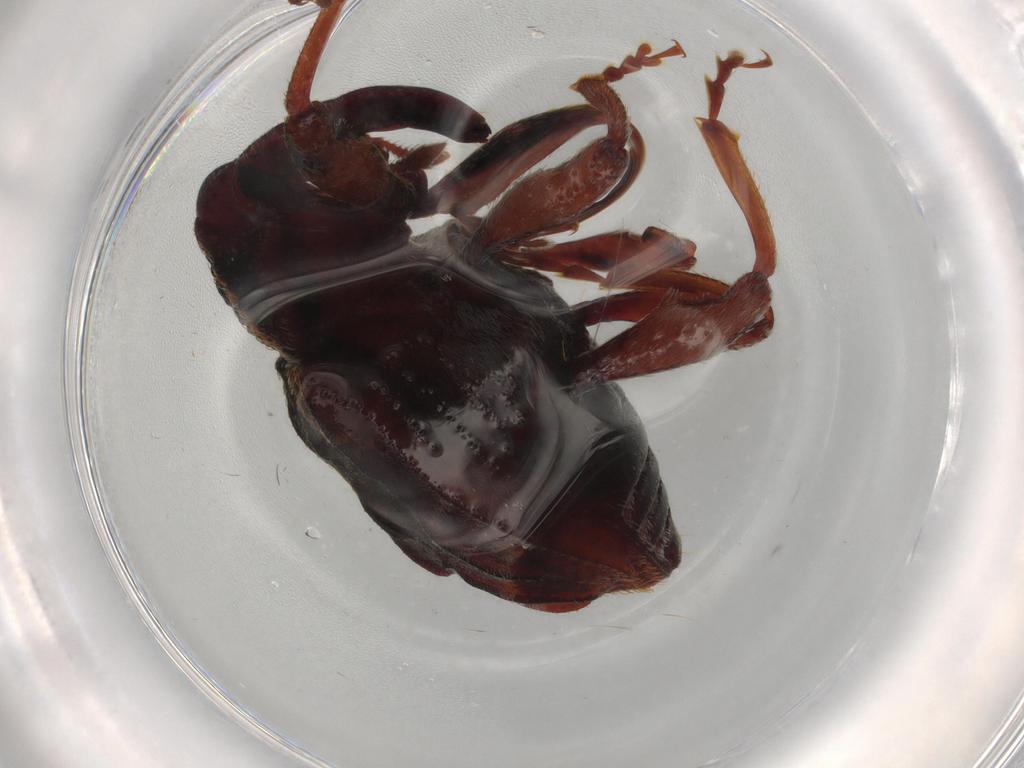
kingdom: Animalia
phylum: Arthropoda
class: Insecta
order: Coleoptera
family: Curculionidae
